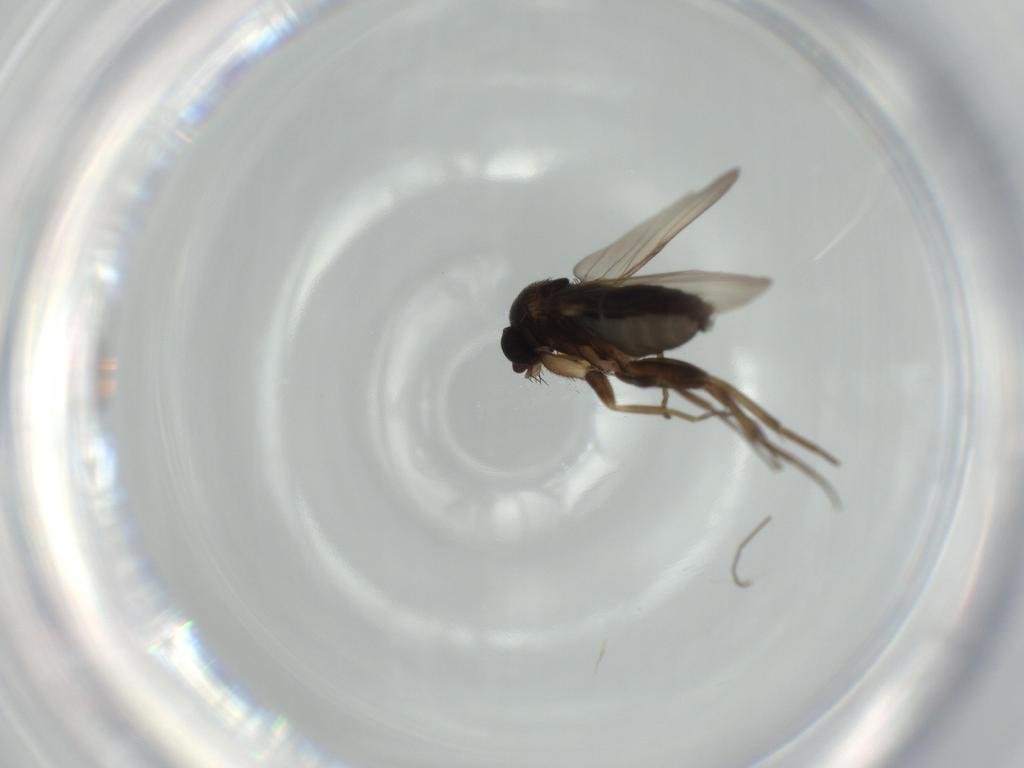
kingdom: Animalia
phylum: Arthropoda
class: Insecta
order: Diptera
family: Phoridae
